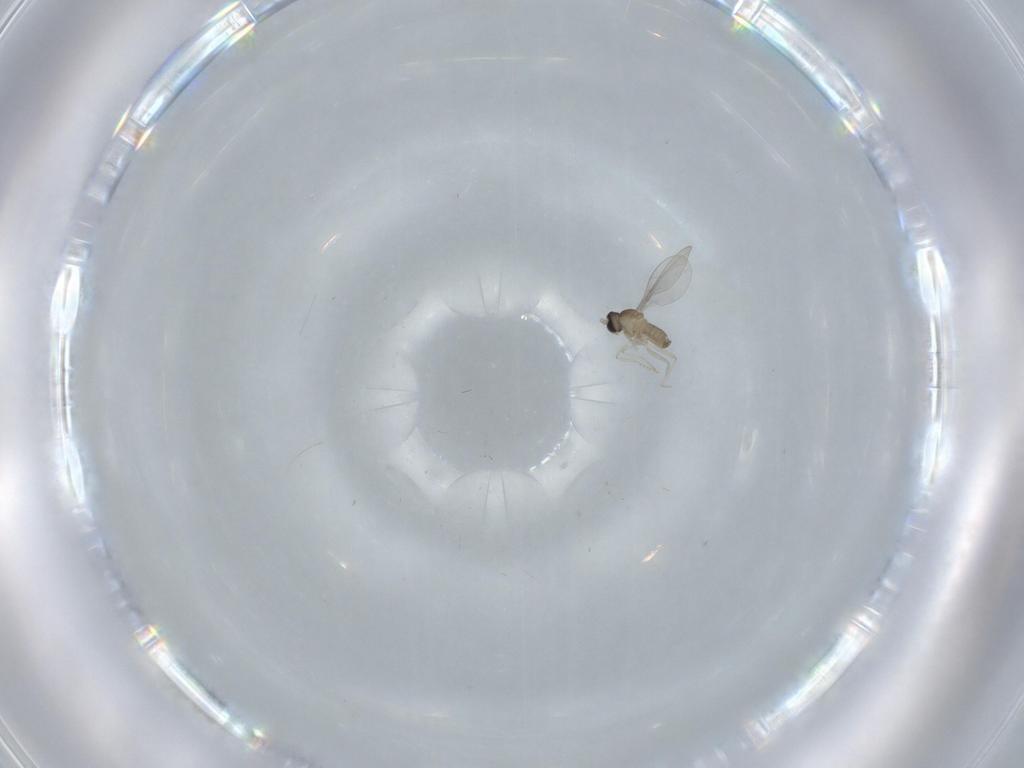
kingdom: Animalia
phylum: Arthropoda
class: Insecta
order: Diptera
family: Cecidomyiidae
